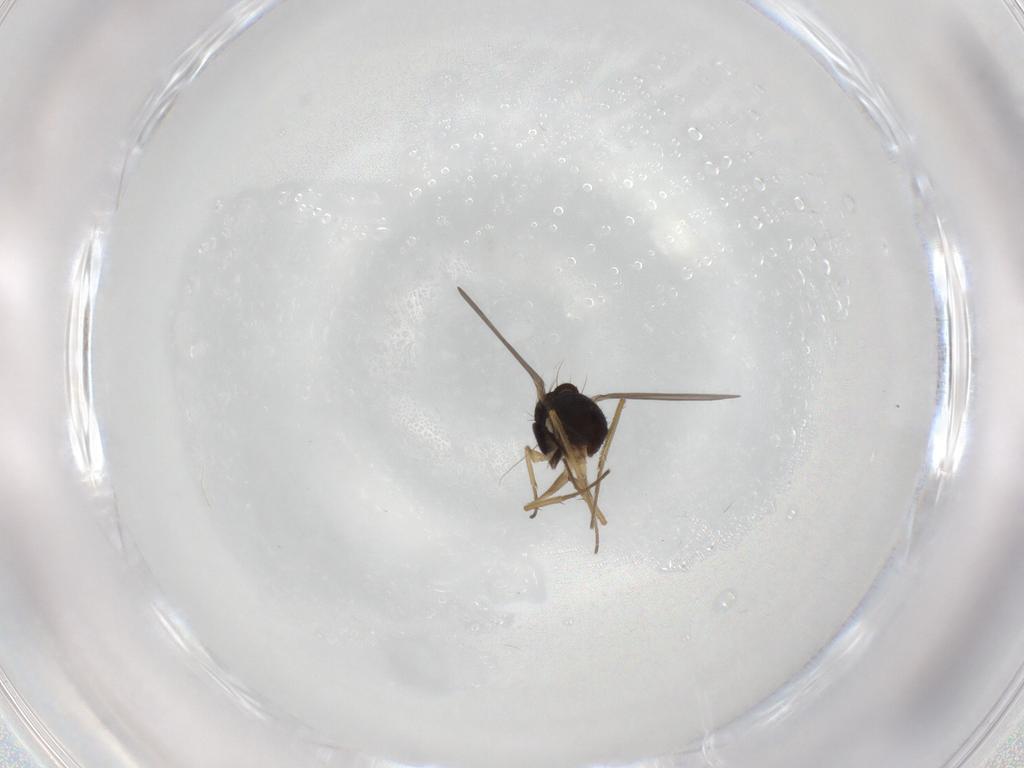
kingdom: Animalia
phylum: Arthropoda
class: Insecta
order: Diptera
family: Dolichopodidae
